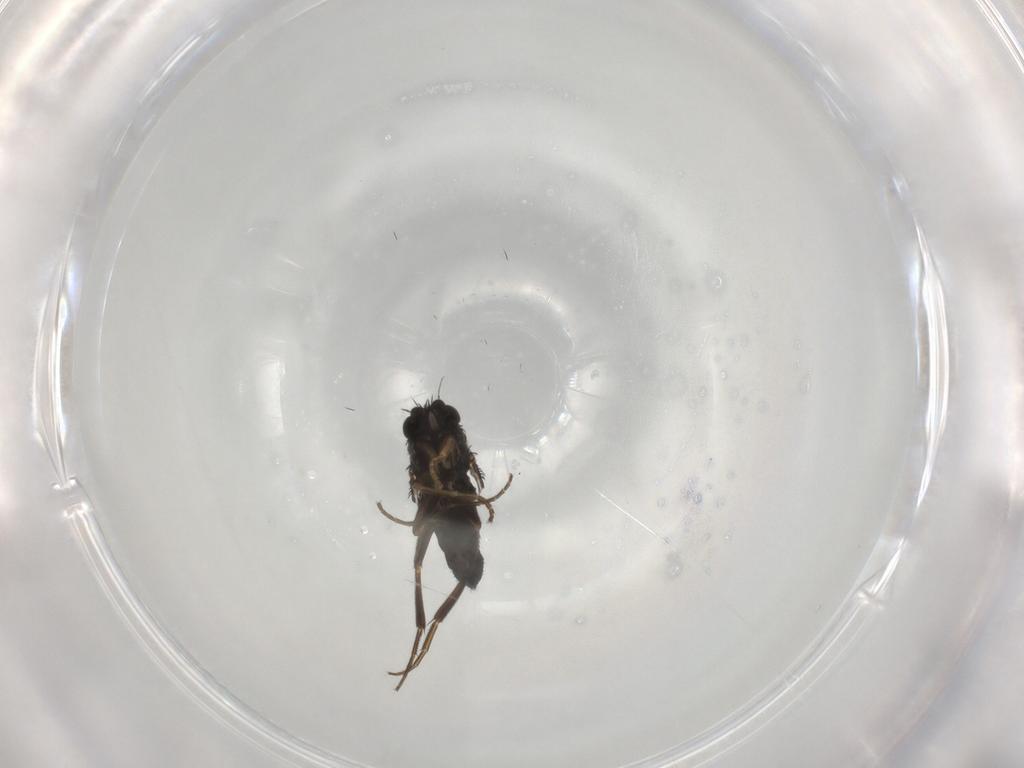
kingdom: Animalia
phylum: Arthropoda
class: Insecta
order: Diptera
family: Phoridae
